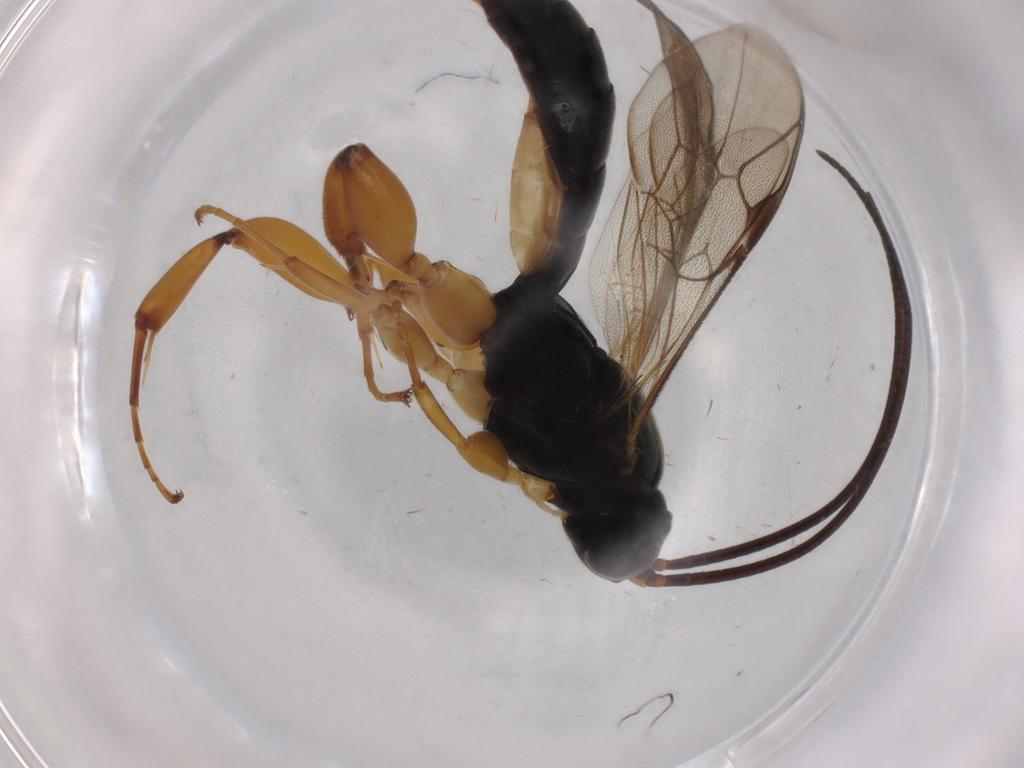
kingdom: Animalia
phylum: Arthropoda
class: Insecta
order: Hymenoptera
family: Ichneumonidae
